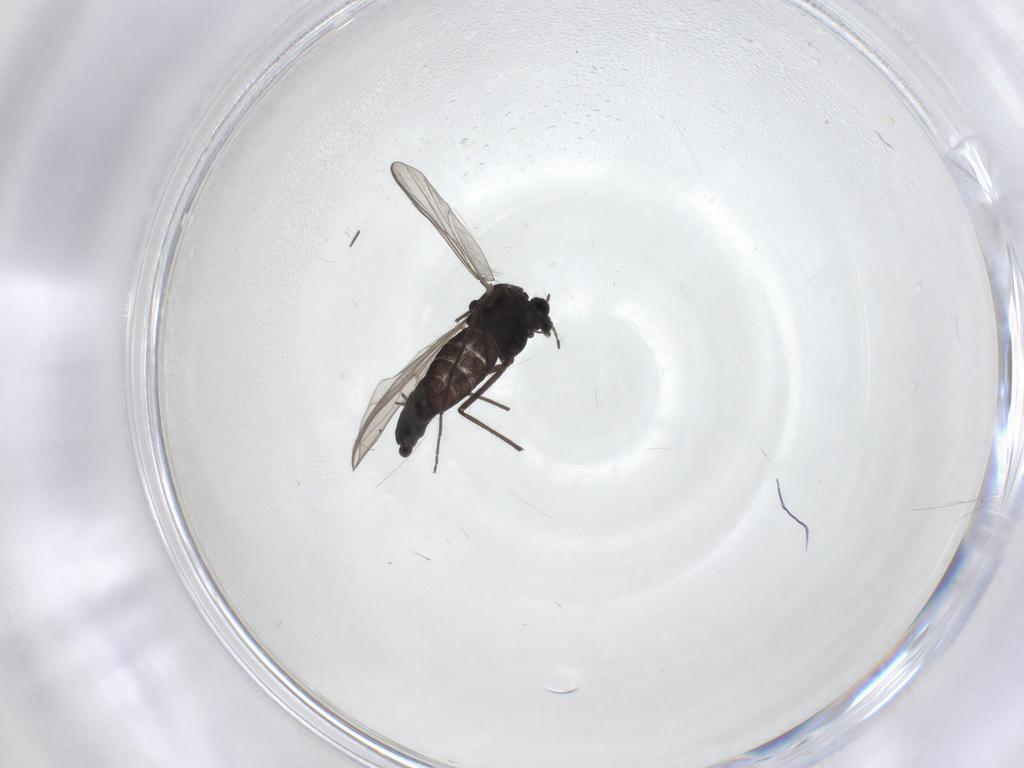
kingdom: Animalia
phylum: Arthropoda
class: Insecta
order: Diptera
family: Chironomidae
